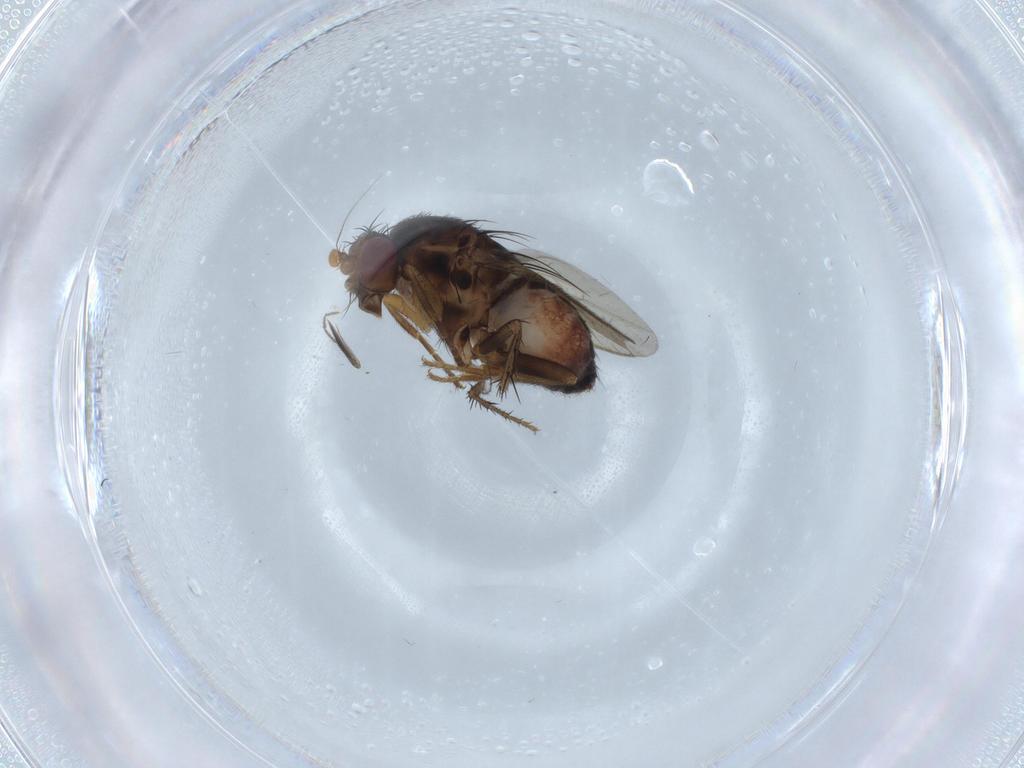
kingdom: Animalia
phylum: Arthropoda
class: Insecta
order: Diptera
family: Ceratopogonidae
